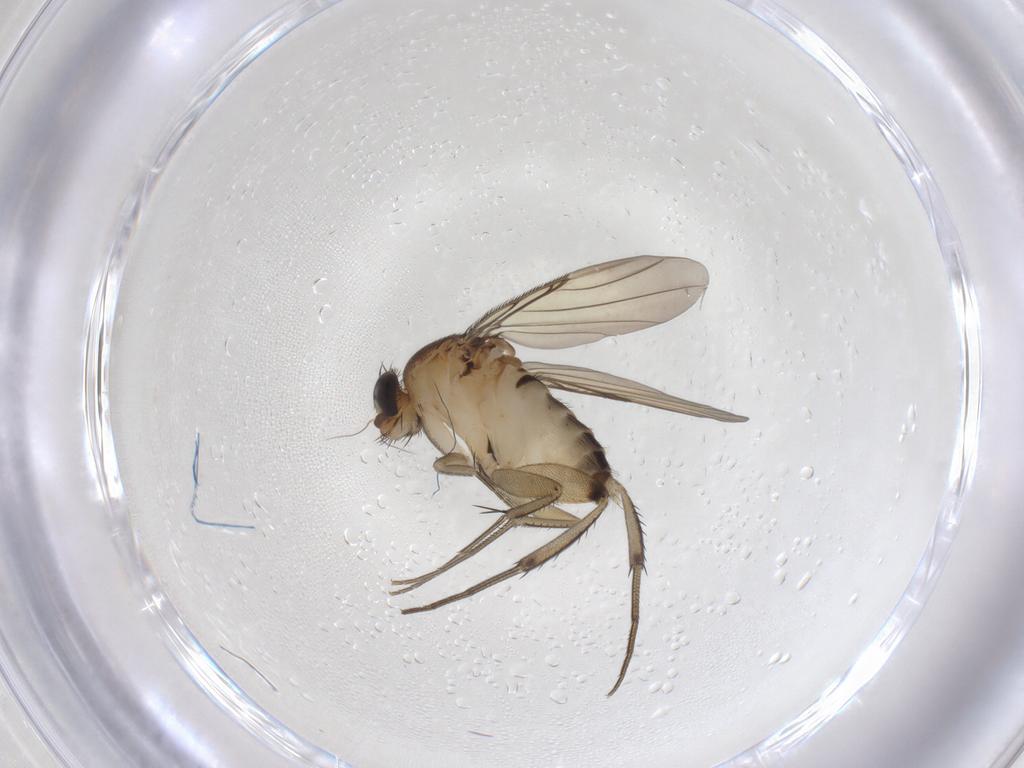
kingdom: Animalia
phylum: Arthropoda
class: Insecta
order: Diptera
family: Phoridae
